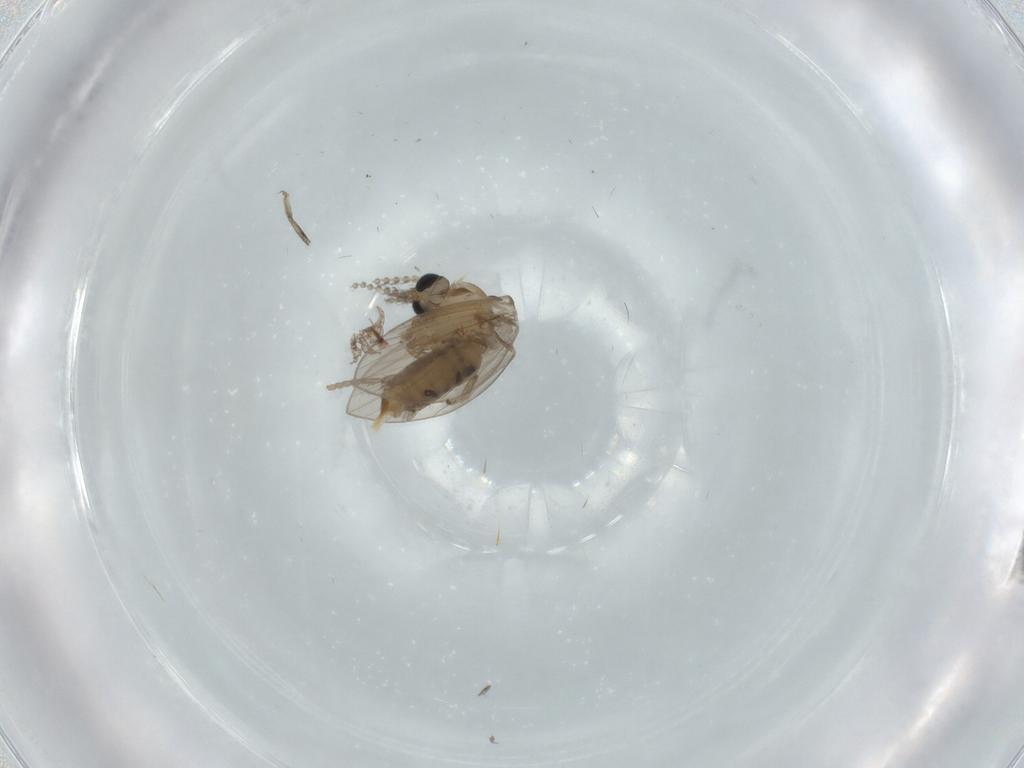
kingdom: Animalia
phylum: Arthropoda
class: Insecta
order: Diptera
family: Psychodidae
